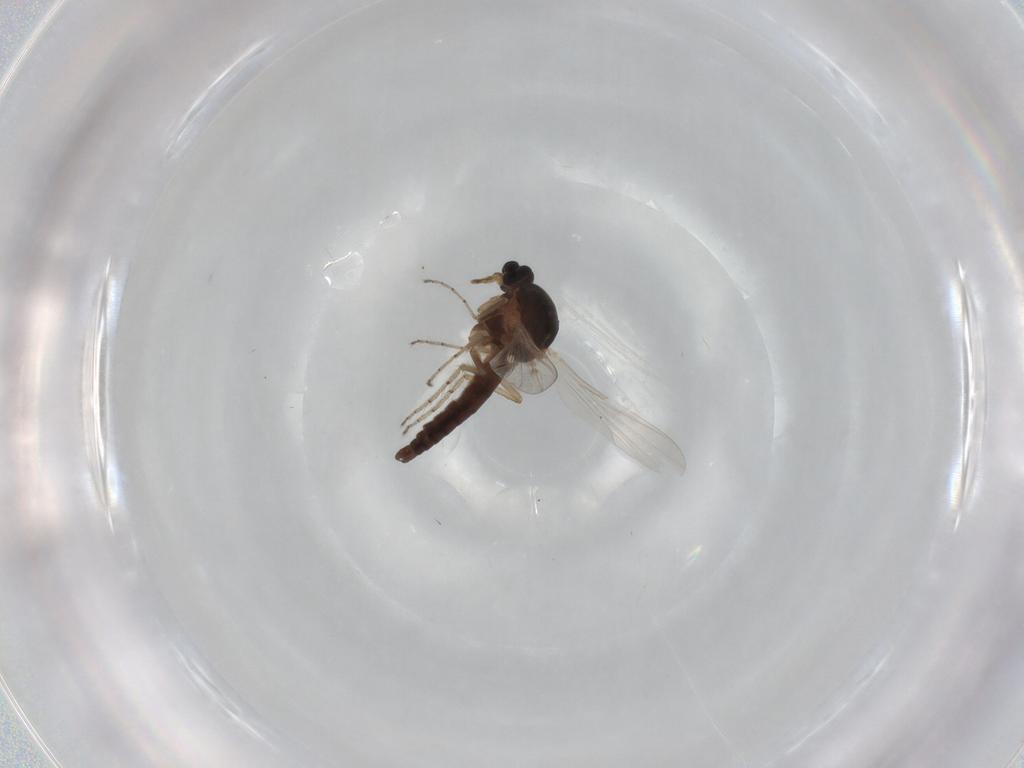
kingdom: Animalia
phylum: Arthropoda
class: Insecta
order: Diptera
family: Ceratopogonidae
